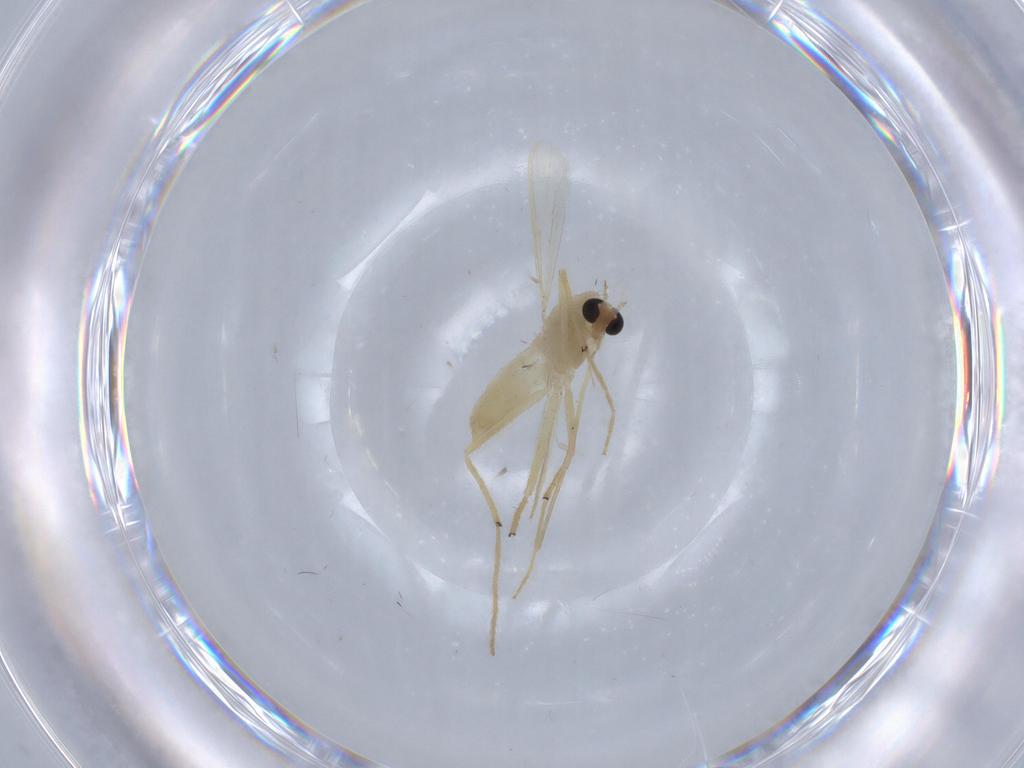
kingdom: Animalia
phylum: Arthropoda
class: Insecta
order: Diptera
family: Chironomidae
